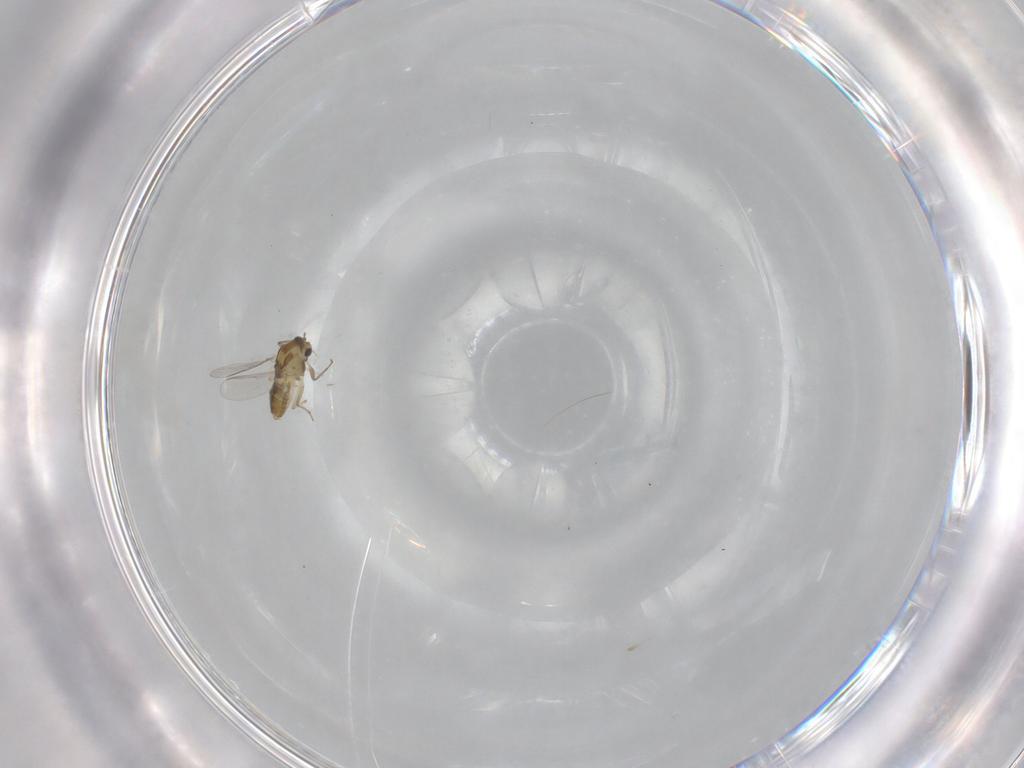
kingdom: Animalia
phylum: Arthropoda
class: Insecta
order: Diptera
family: Chironomidae
